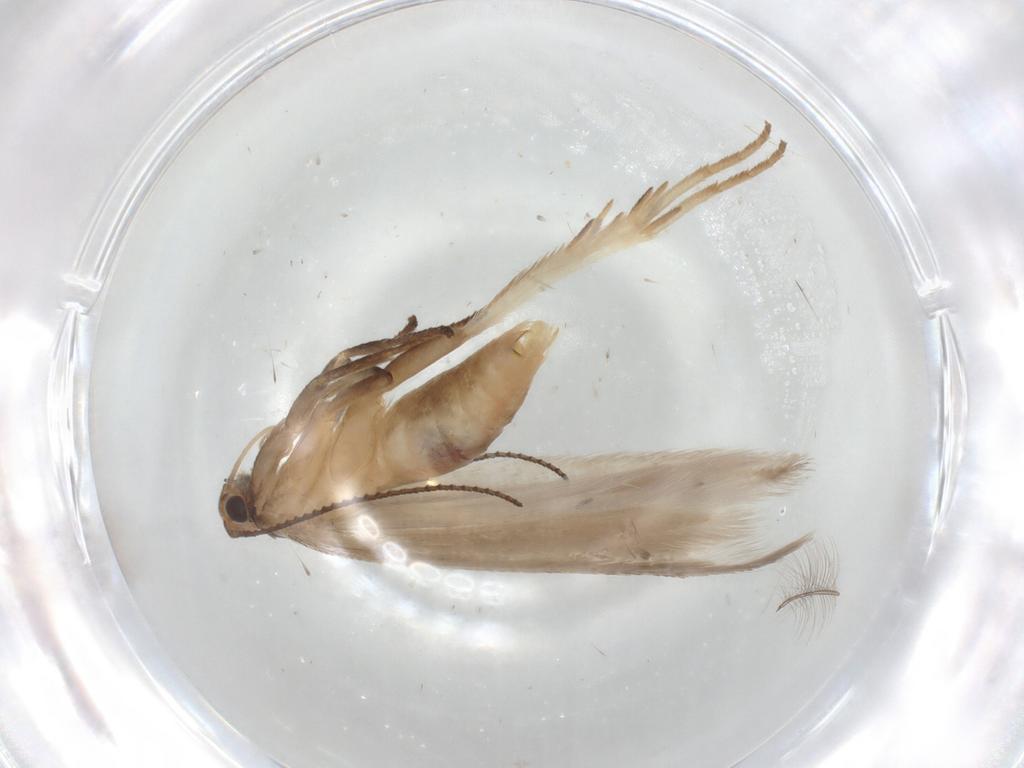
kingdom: Animalia
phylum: Arthropoda
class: Insecta
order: Lepidoptera
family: Gelechiidae
